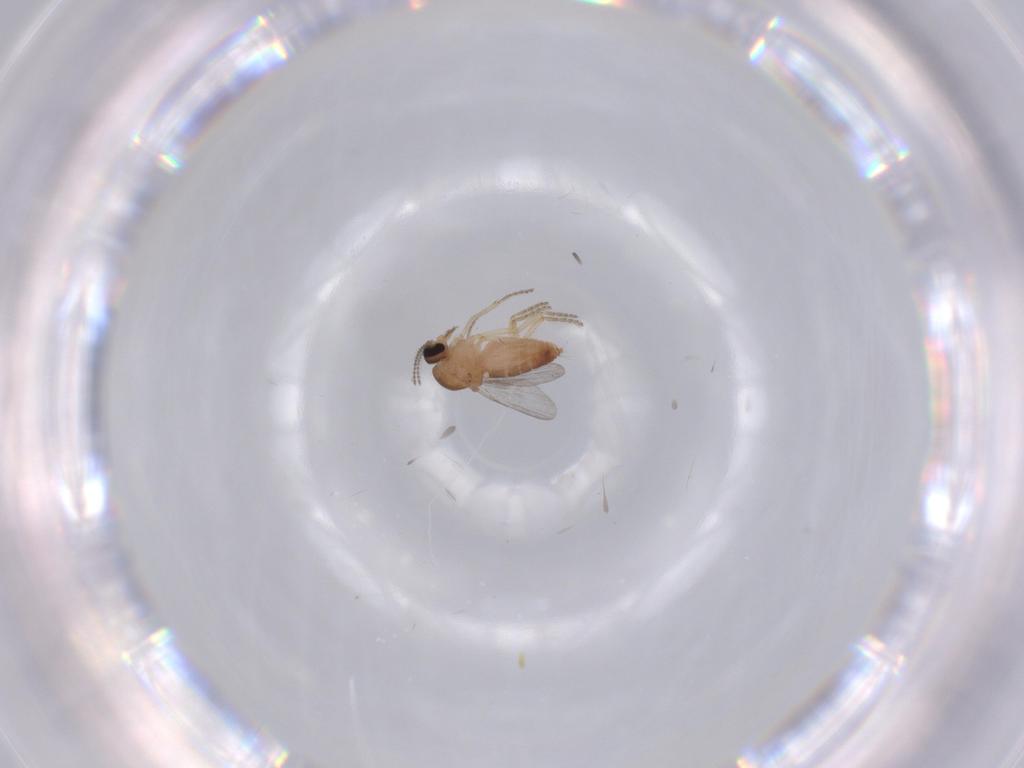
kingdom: Animalia
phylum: Arthropoda
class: Insecta
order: Diptera
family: Ceratopogonidae
